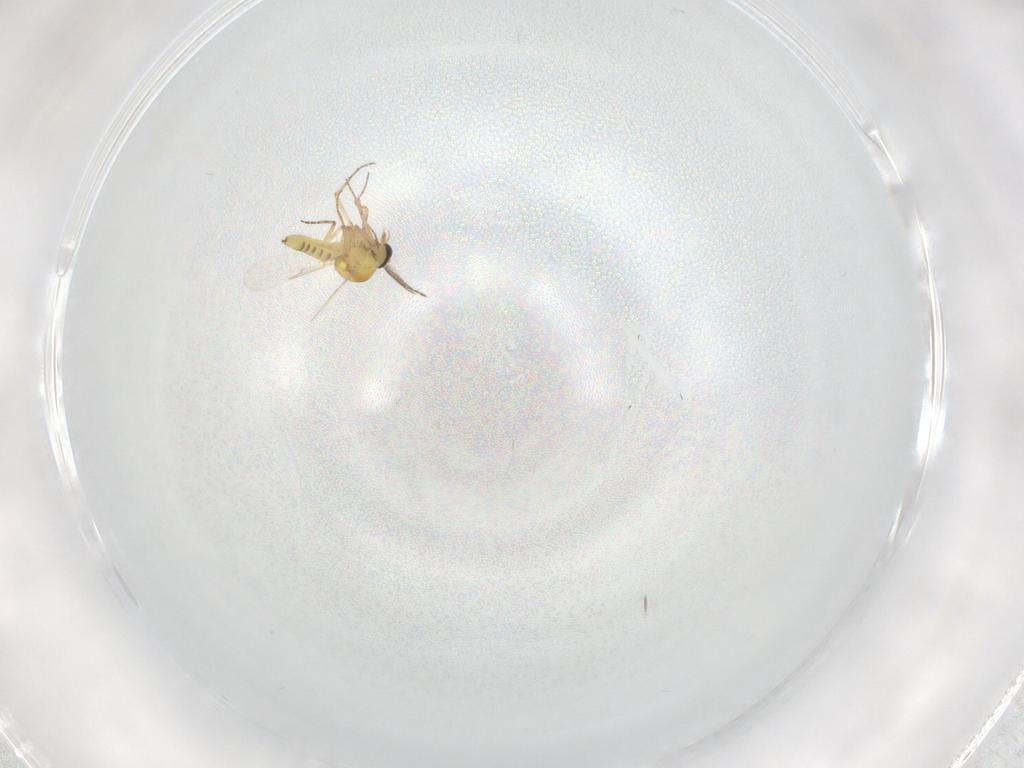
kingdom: Animalia
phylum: Arthropoda
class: Insecta
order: Diptera
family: Ceratopogonidae
